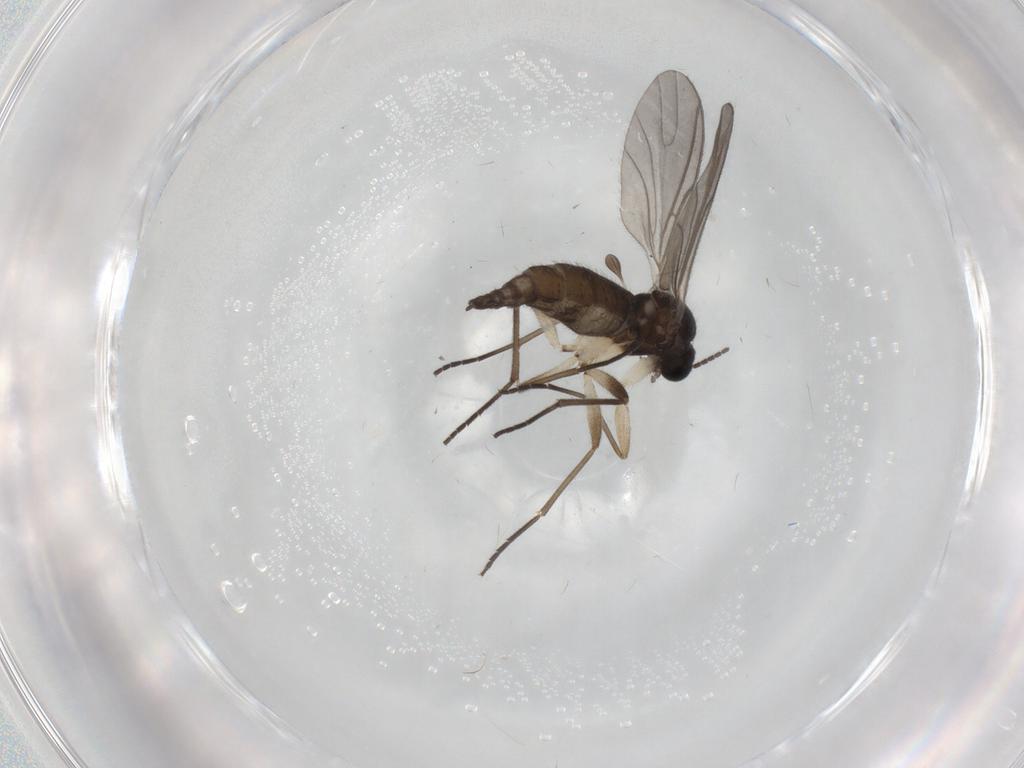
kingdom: Animalia
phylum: Arthropoda
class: Insecta
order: Diptera
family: Sciaridae
